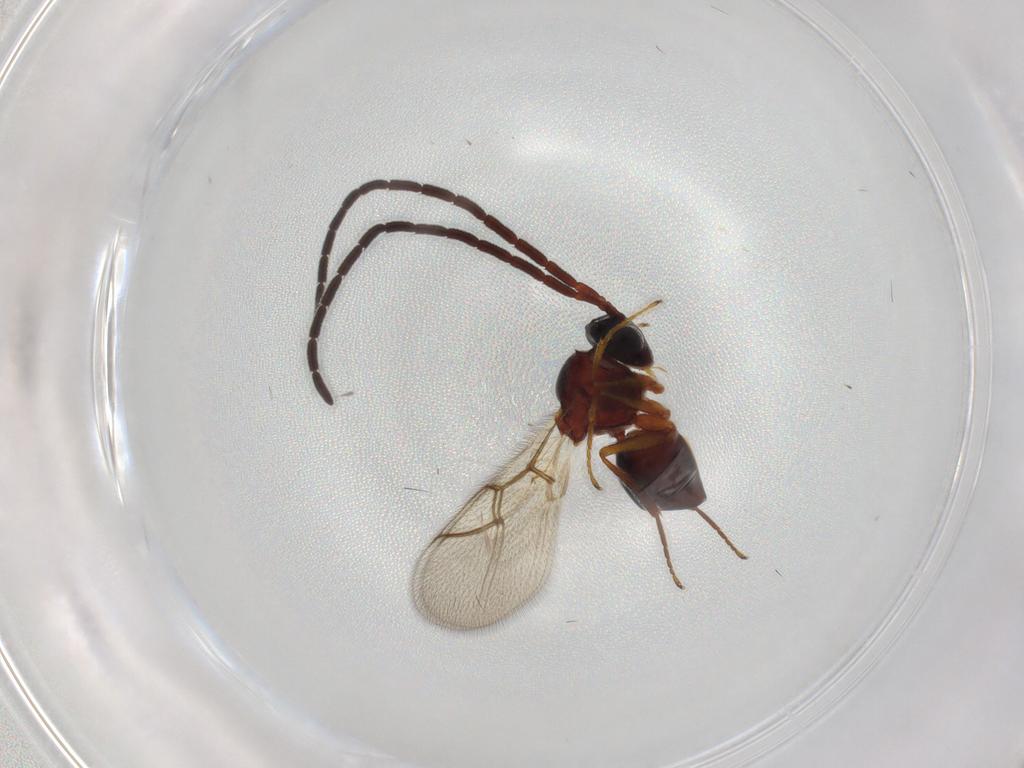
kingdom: Animalia
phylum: Arthropoda
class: Insecta
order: Hymenoptera
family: Figitidae
